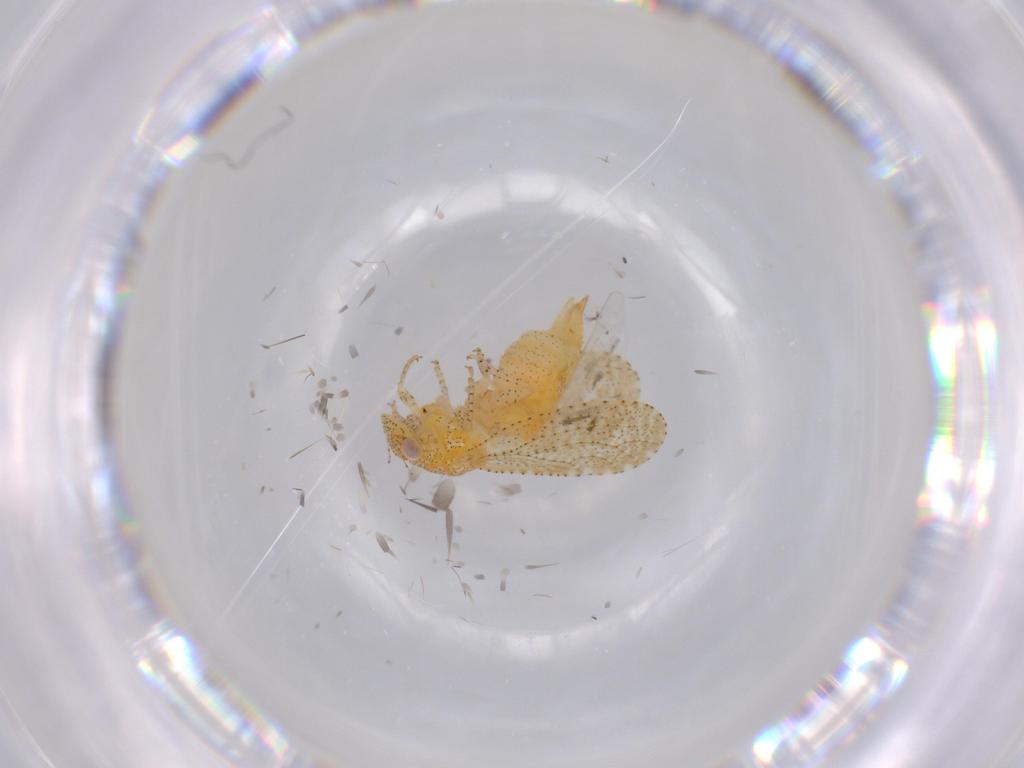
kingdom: Animalia
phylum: Arthropoda
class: Insecta
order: Hemiptera
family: Psyllidae
